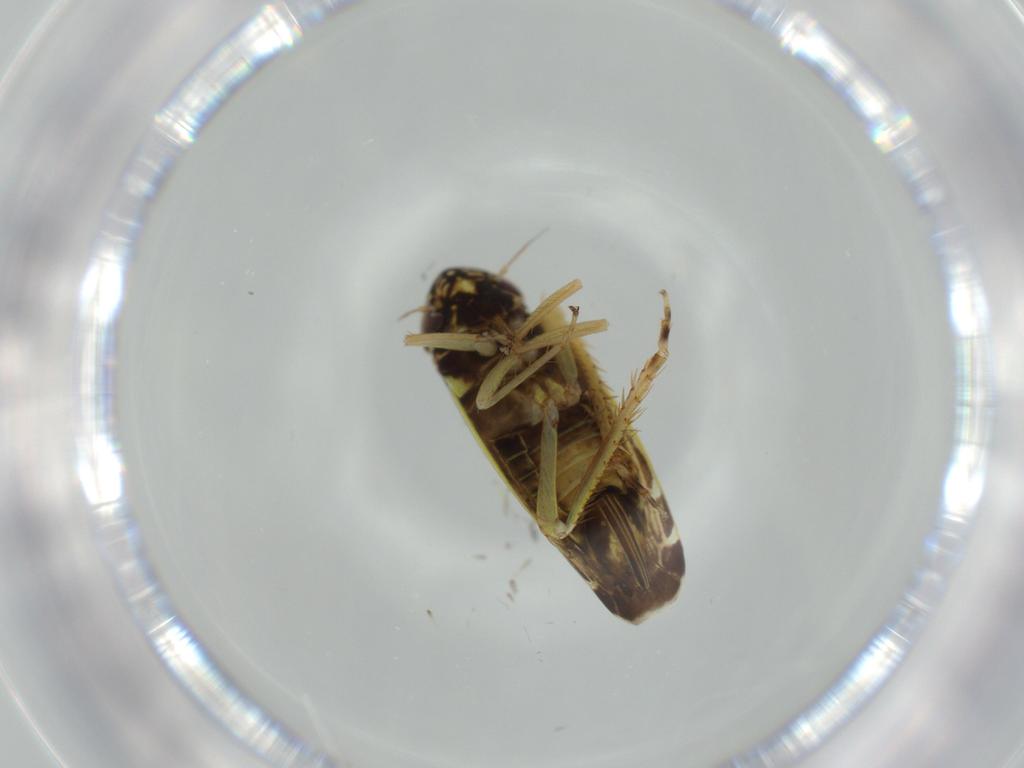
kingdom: Animalia
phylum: Arthropoda
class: Insecta
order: Hemiptera
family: Cicadellidae
